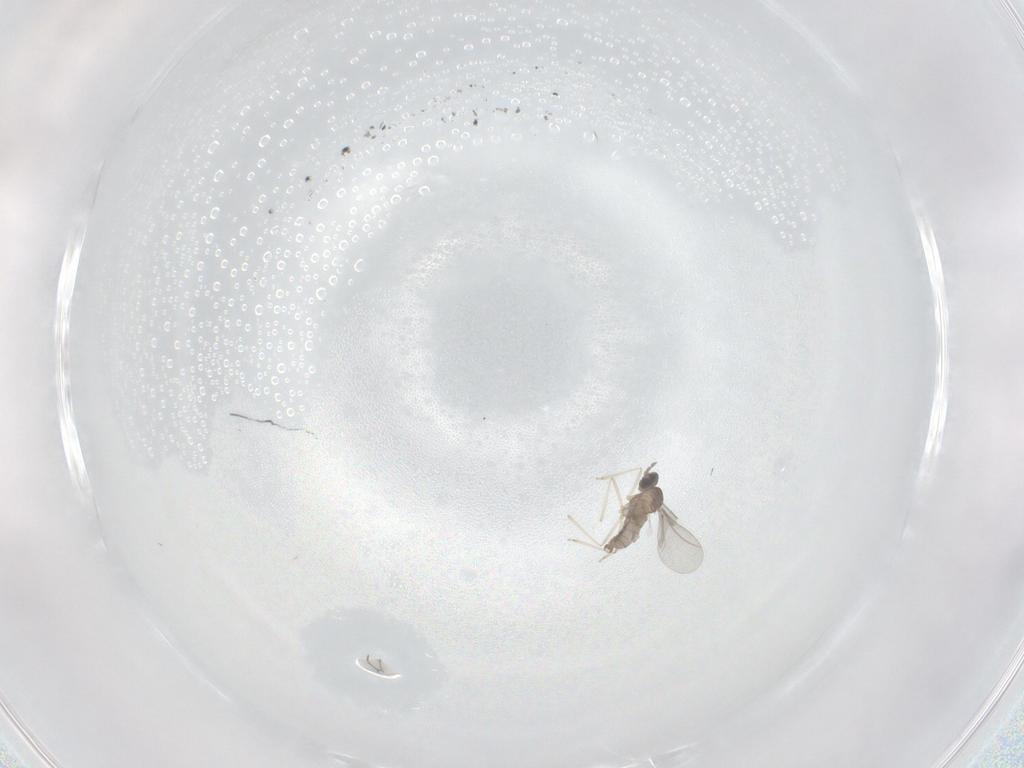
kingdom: Animalia
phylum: Arthropoda
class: Insecta
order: Diptera
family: Cecidomyiidae
